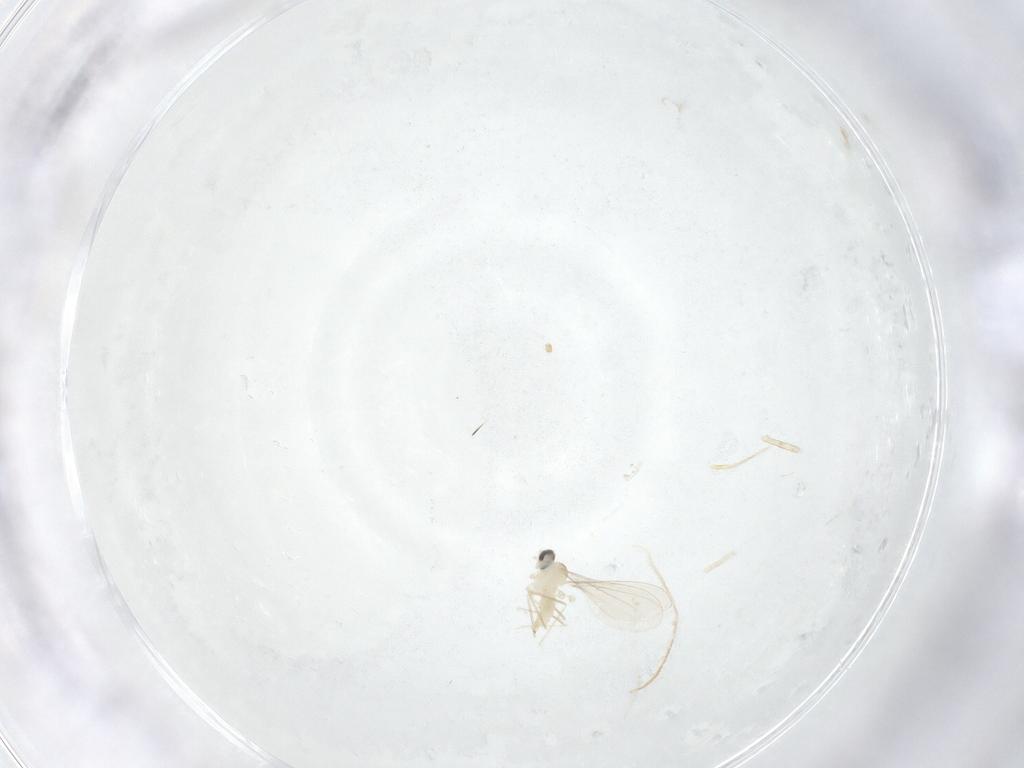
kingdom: Animalia
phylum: Arthropoda
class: Insecta
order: Diptera
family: Cecidomyiidae
